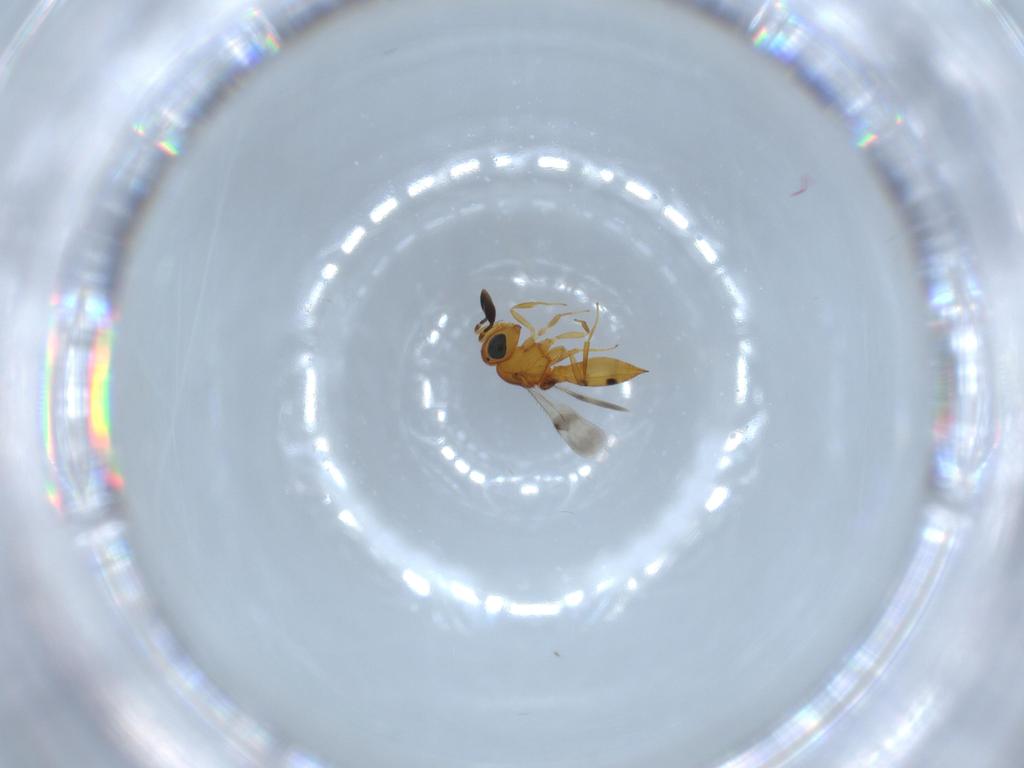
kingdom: Animalia
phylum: Arthropoda
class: Insecta
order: Hymenoptera
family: Scelionidae
